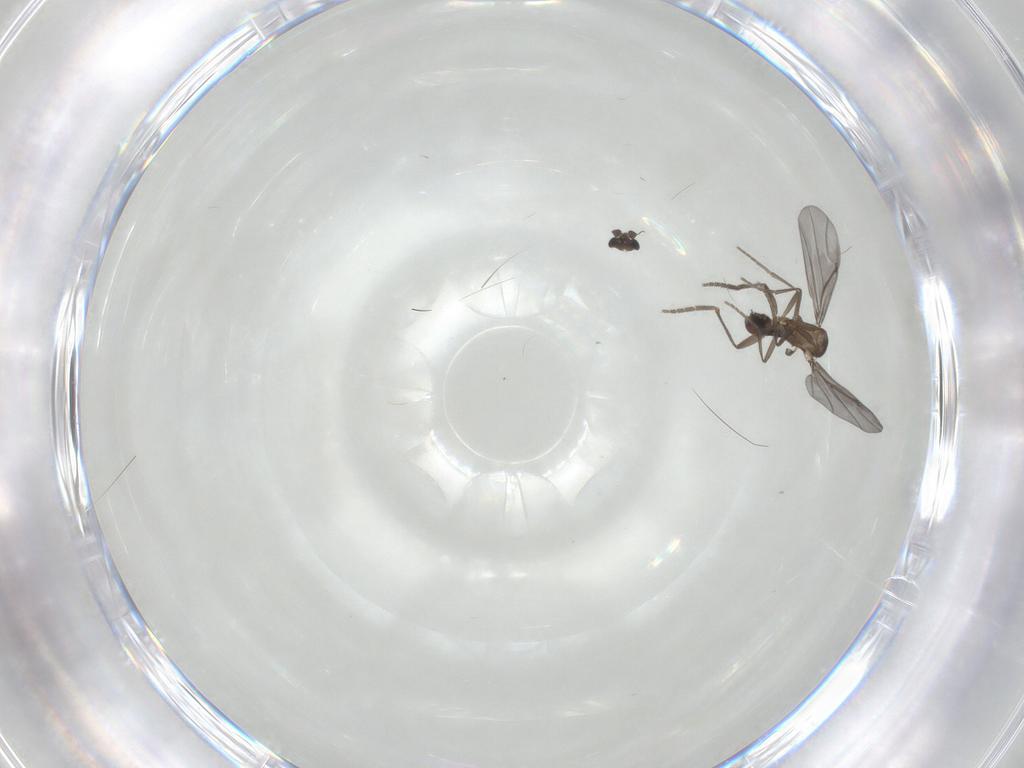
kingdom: Animalia
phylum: Arthropoda
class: Insecta
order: Diptera
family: Phoridae
